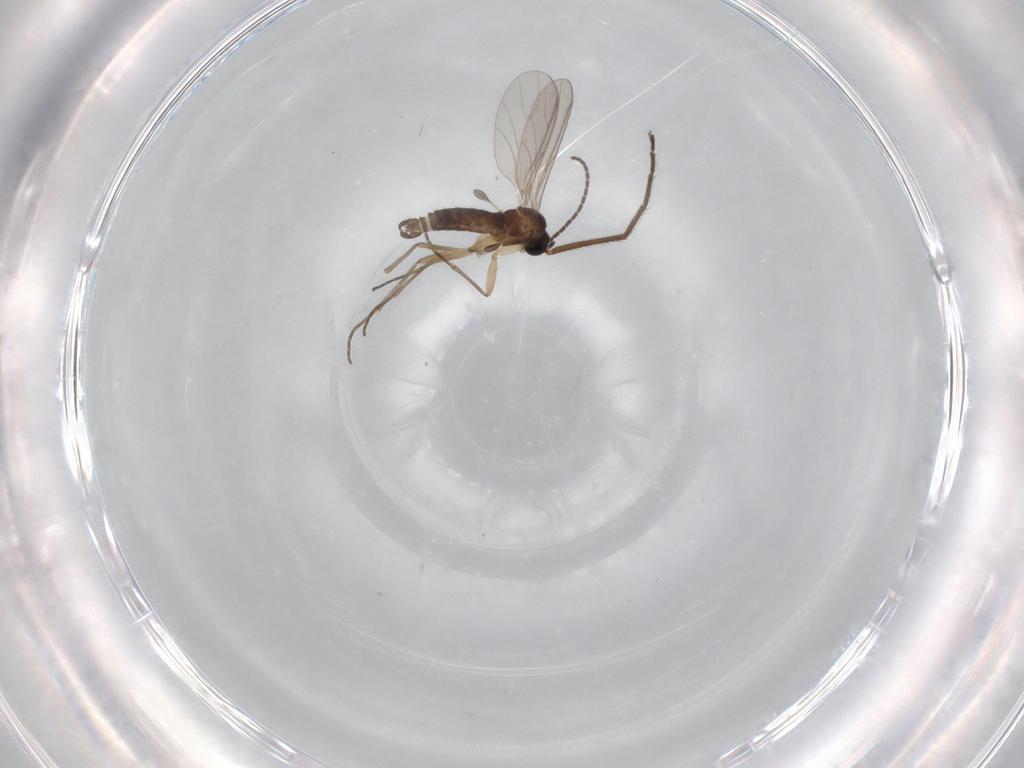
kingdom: Animalia
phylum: Arthropoda
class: Insecta
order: Diptera
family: Sciaridae
